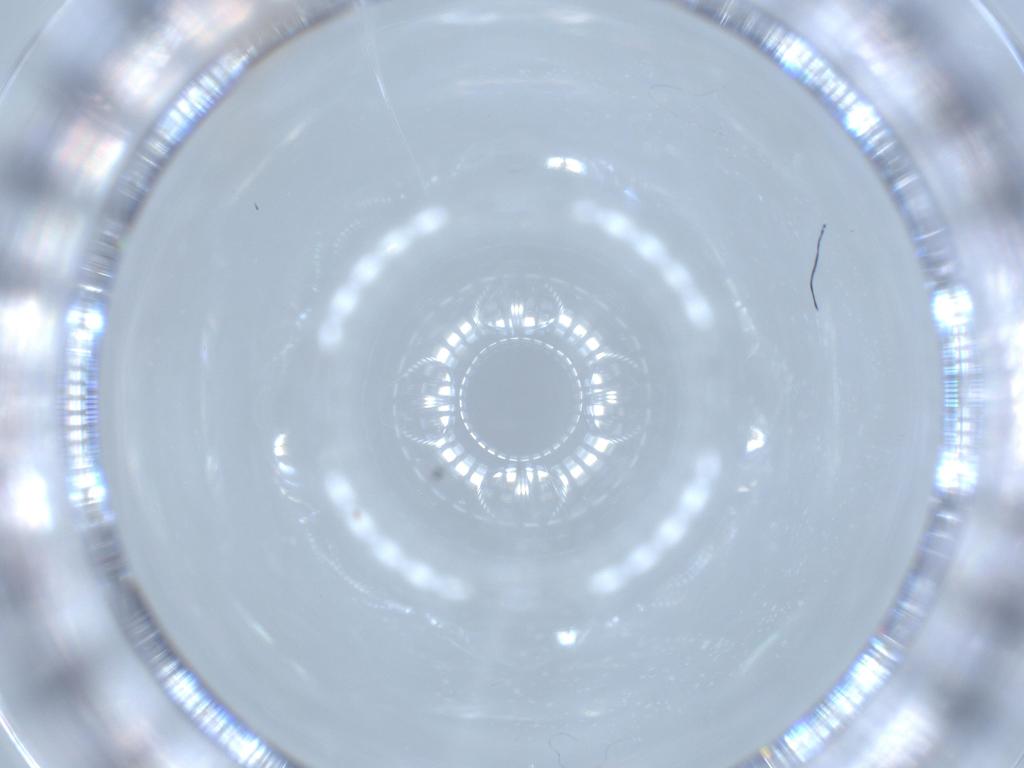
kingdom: Animalia
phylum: Arthropoda
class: Insecta
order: Diptera
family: Cecidomyiidae
